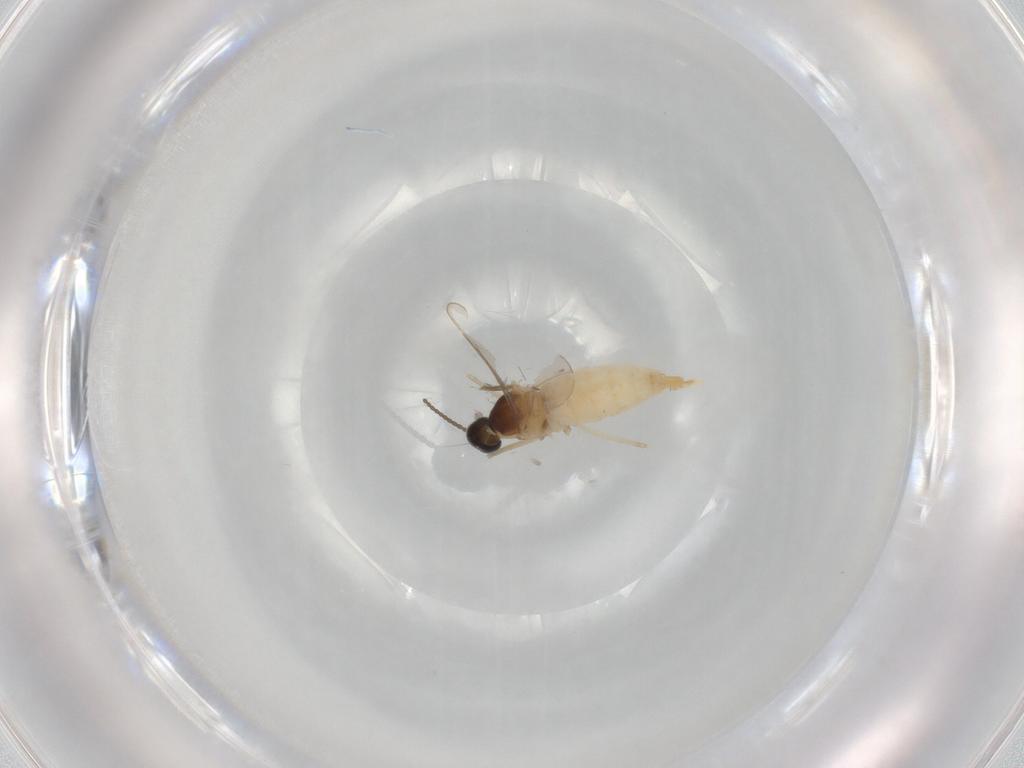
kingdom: Animalia
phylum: Arthropoda
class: Insecta
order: Diptera
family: Cecidomyiidae
